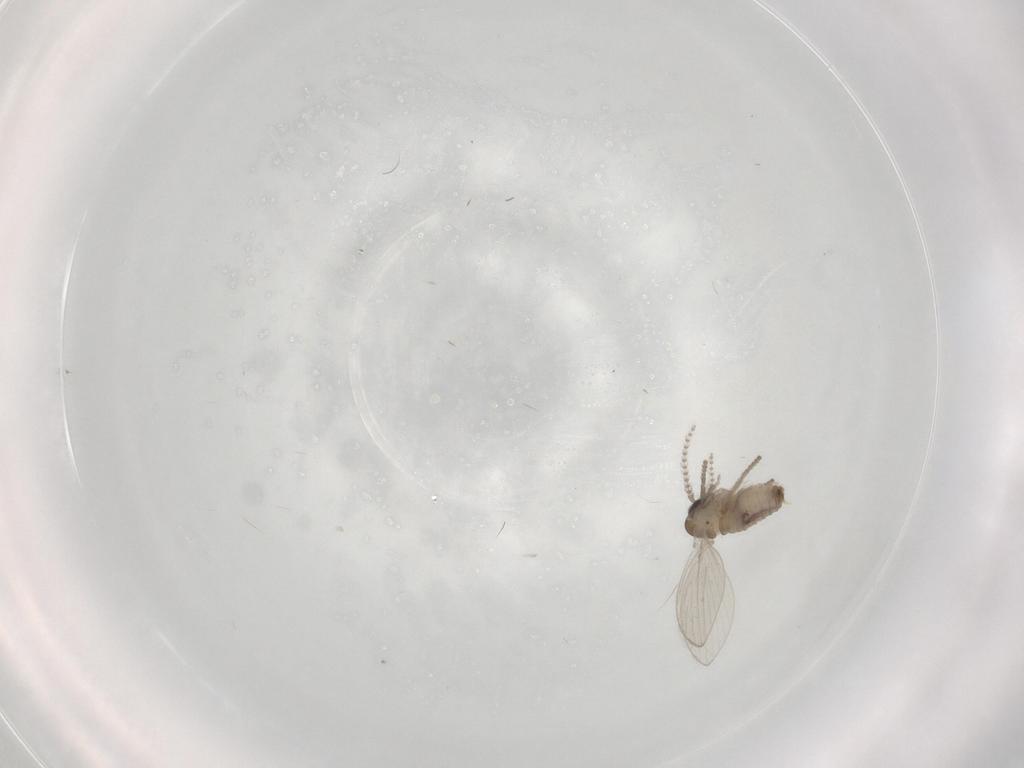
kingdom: Animalia
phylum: Arthropoda
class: Insecta
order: Diptera
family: Psychodidae
